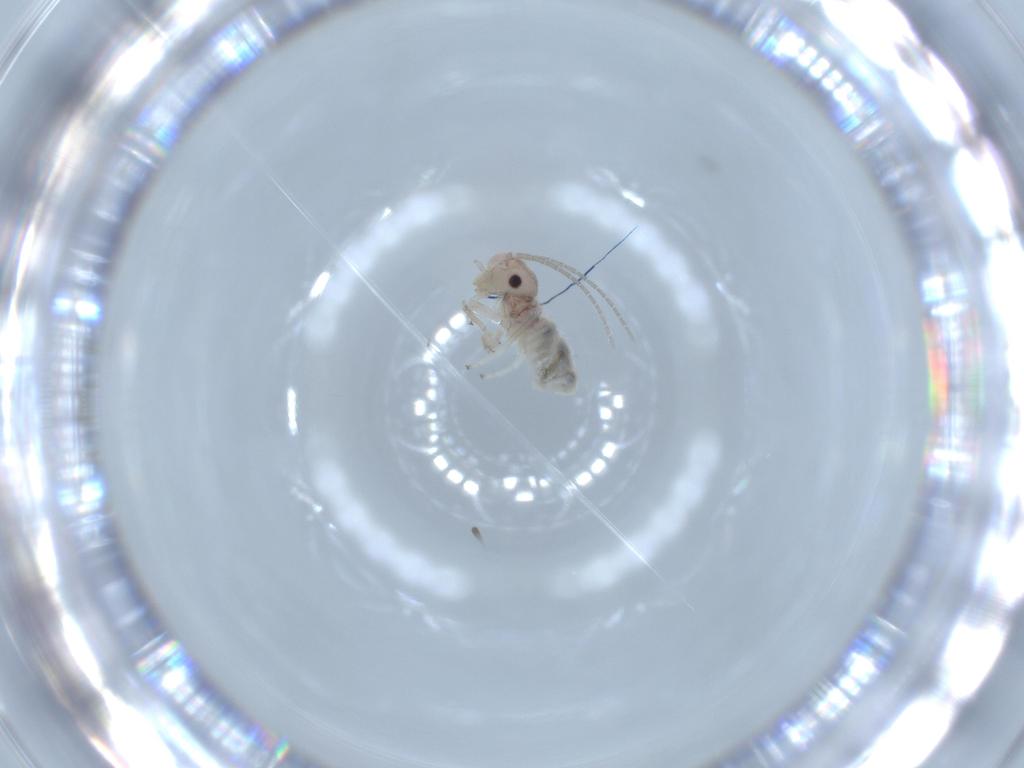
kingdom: Animalia
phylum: Arthropoda
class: Insecta
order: Psocodea
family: Amphipsocidae
